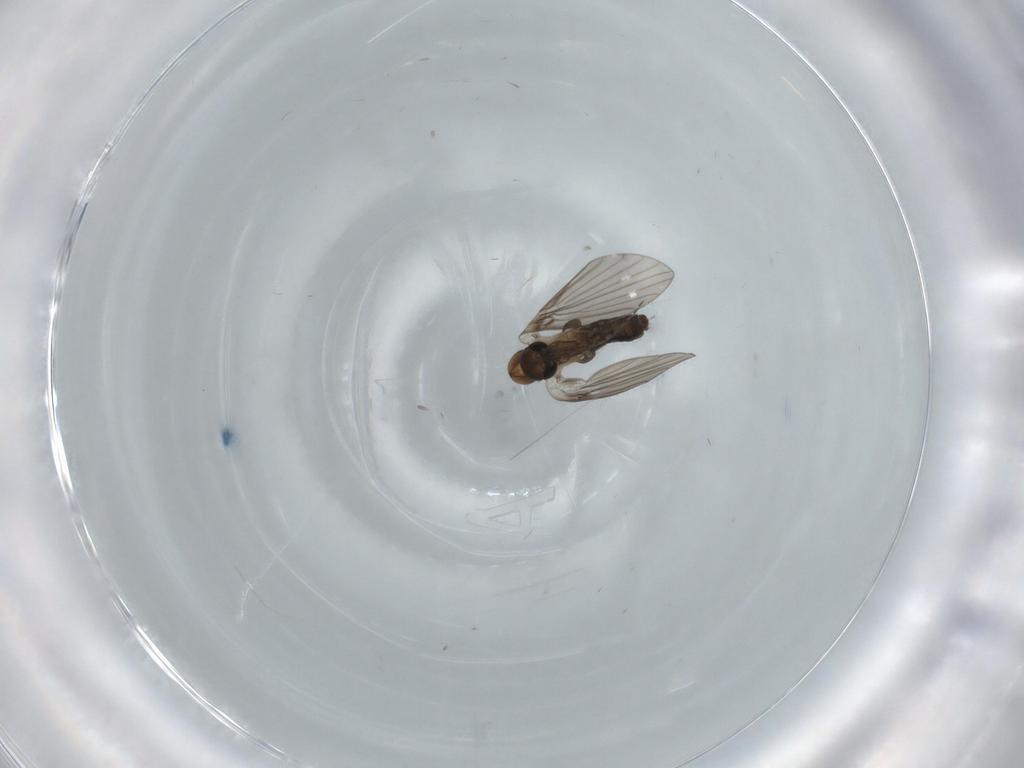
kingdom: Animalia
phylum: Arthropoda
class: Insecta
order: Diptera
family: Psychodidae
